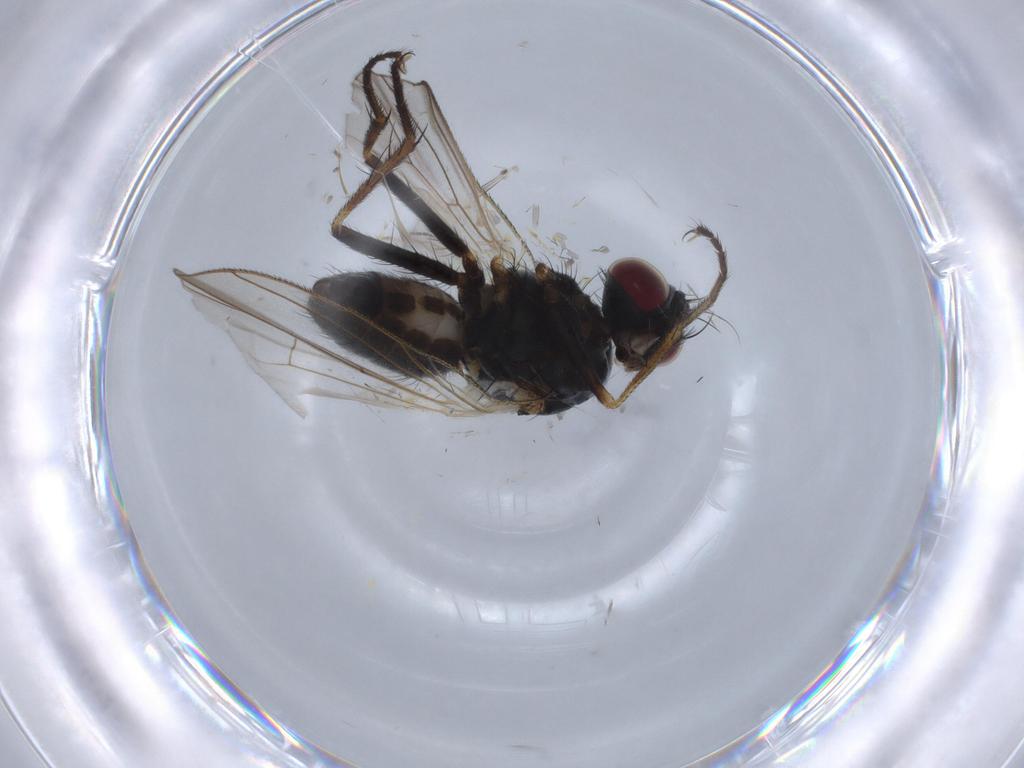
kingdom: Animalia
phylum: Arthropoda
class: Insecta
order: Diptera
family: Muscidae
